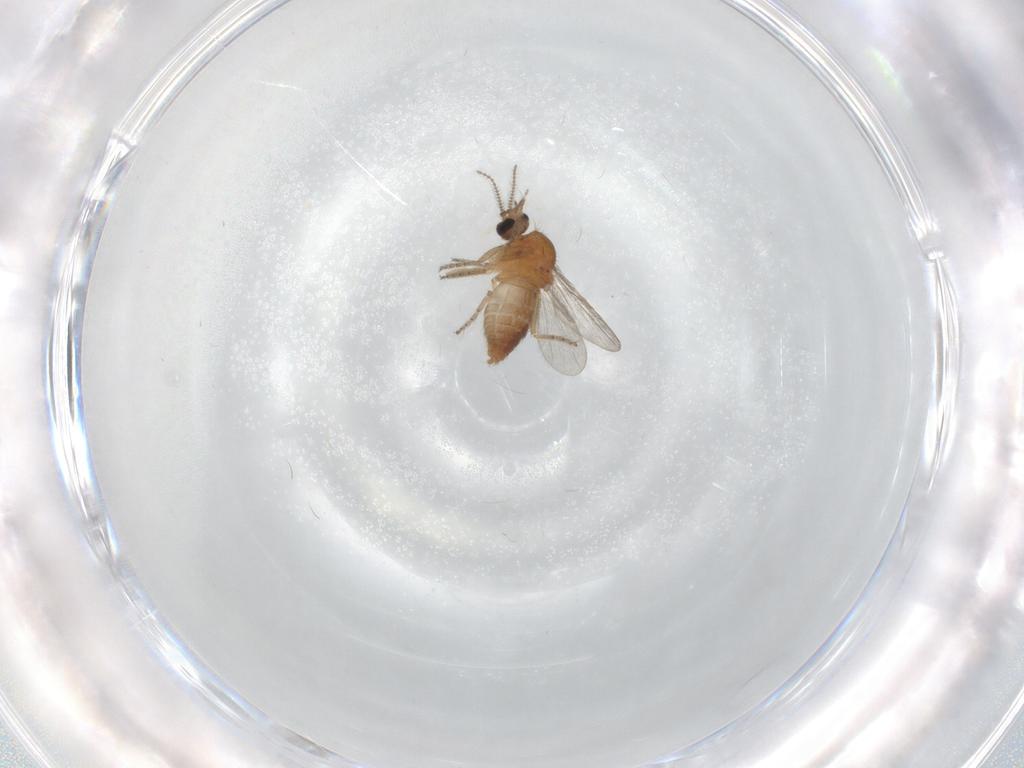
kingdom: Animalia
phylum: Arthropoda
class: Insecta
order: Diptera
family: Ceratopogonidae
